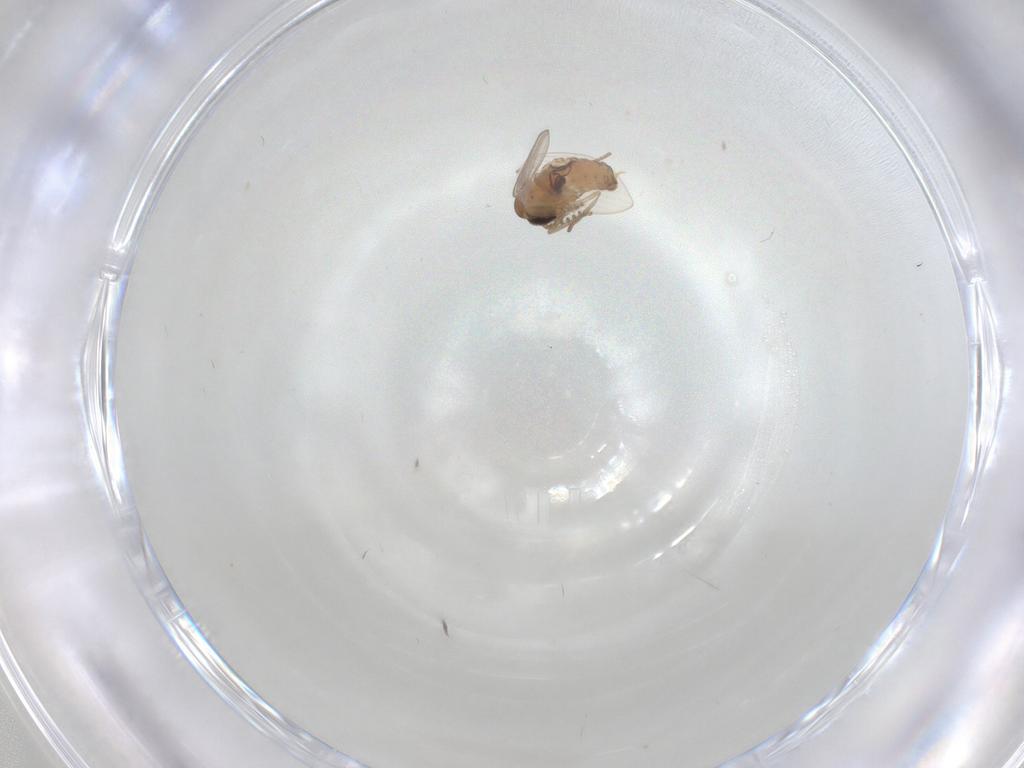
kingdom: Animalia
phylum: Arthropoda
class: Insecta
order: Diptera
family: Psychodidae
